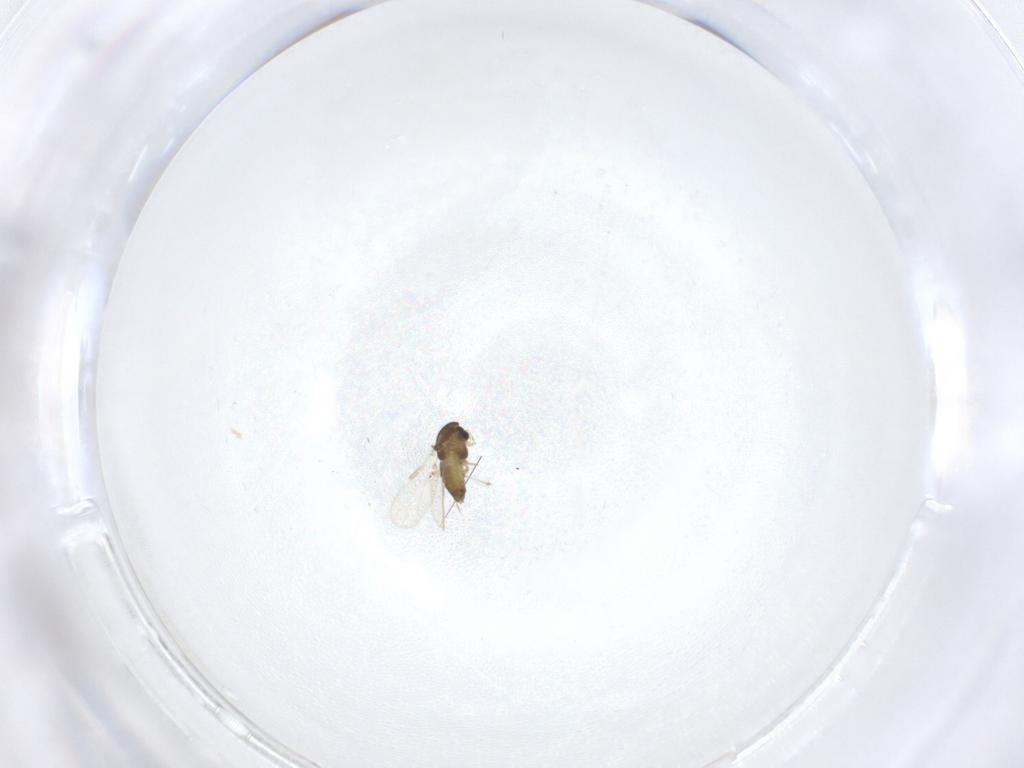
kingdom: Animalia
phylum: Arthropoda
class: Insecta
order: Diptera
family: Chironomidae
